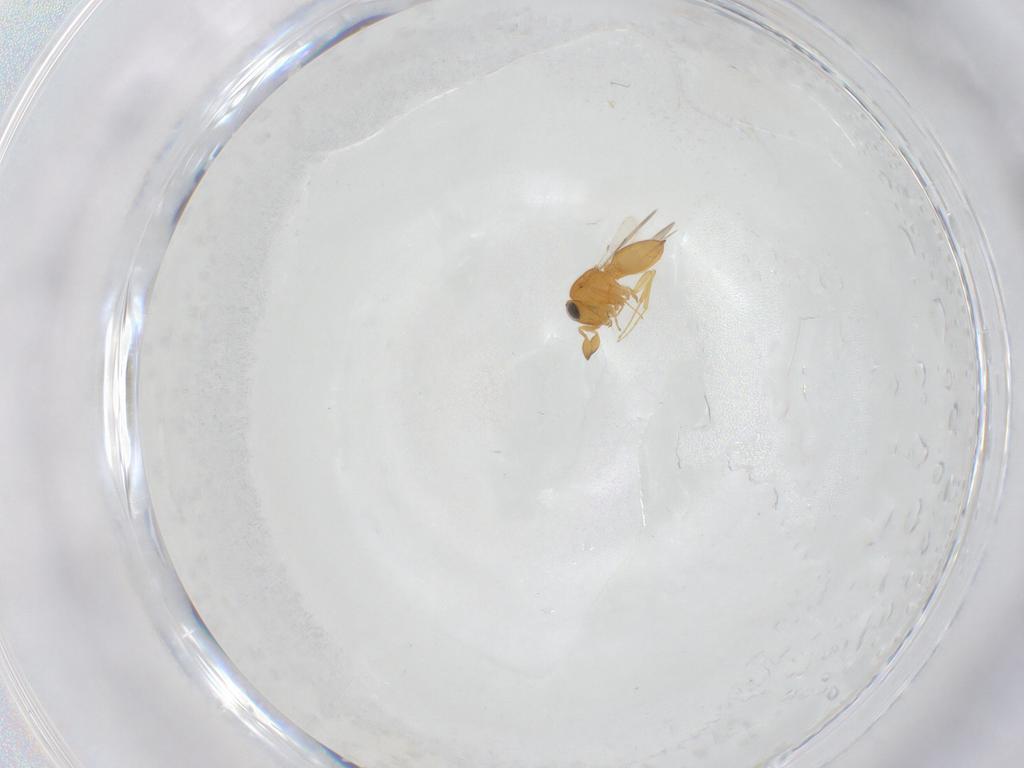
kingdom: Animalia
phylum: Arthropoda
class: Insecta
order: Hymenoptera
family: Scelionidae
